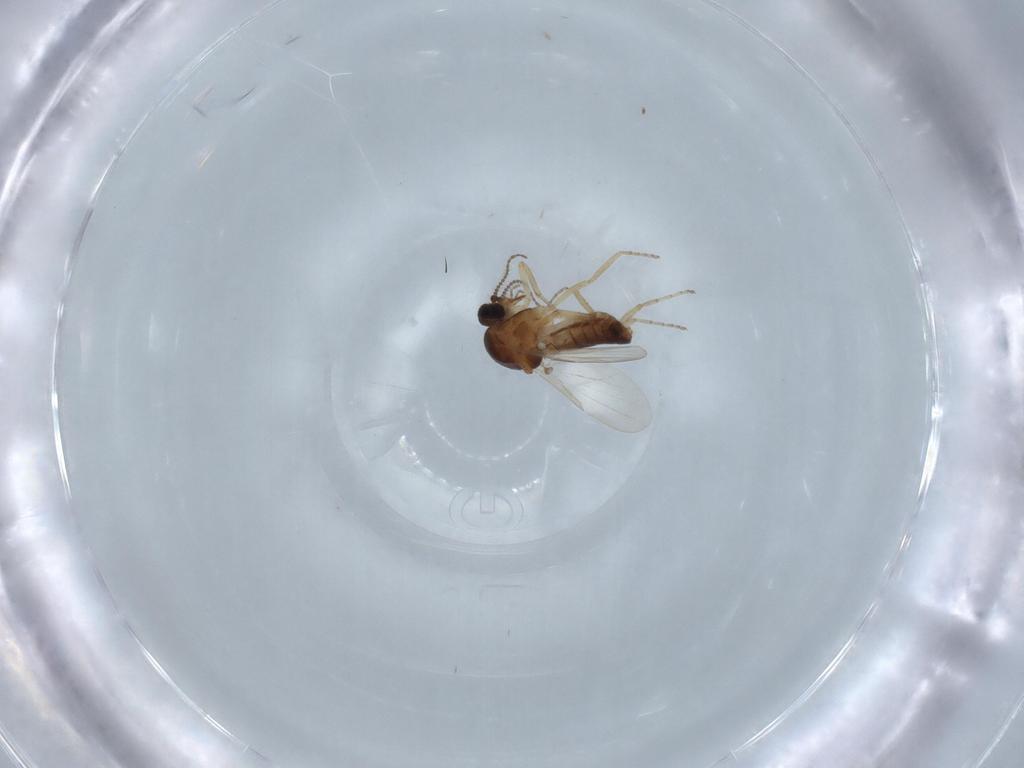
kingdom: Animalia
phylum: Arthropoda
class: Insecta
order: Diptera
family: Ceratopogonidae
